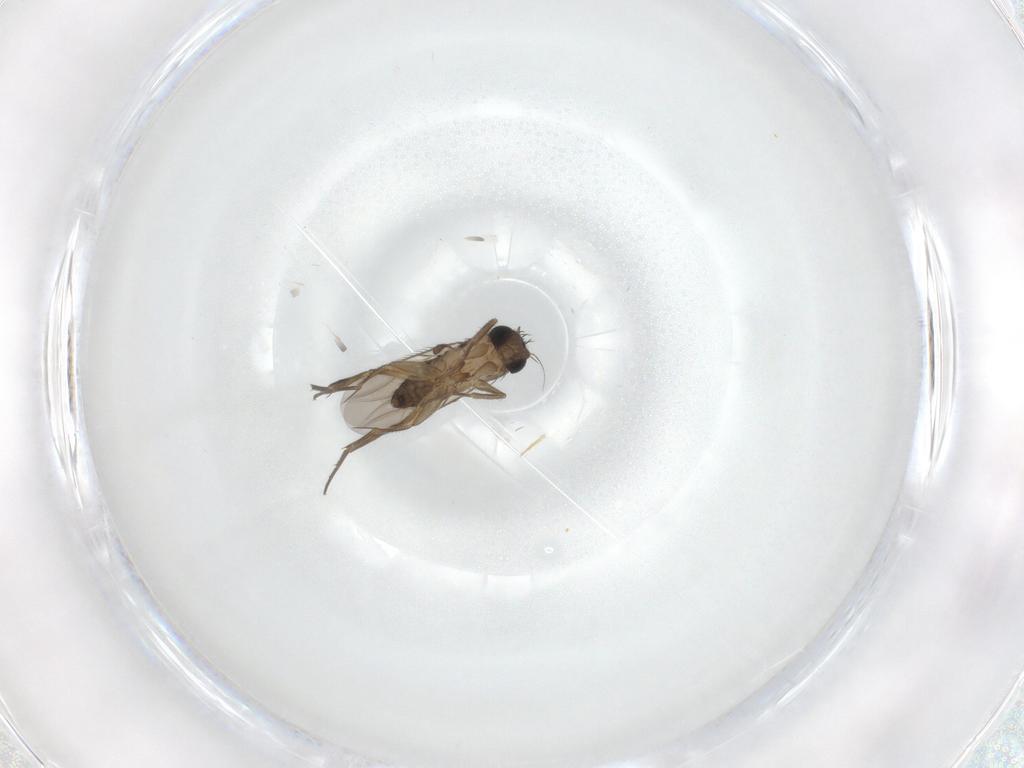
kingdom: Animalia
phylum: Arthropoda
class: Insecta
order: Diptera
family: Phoridae
